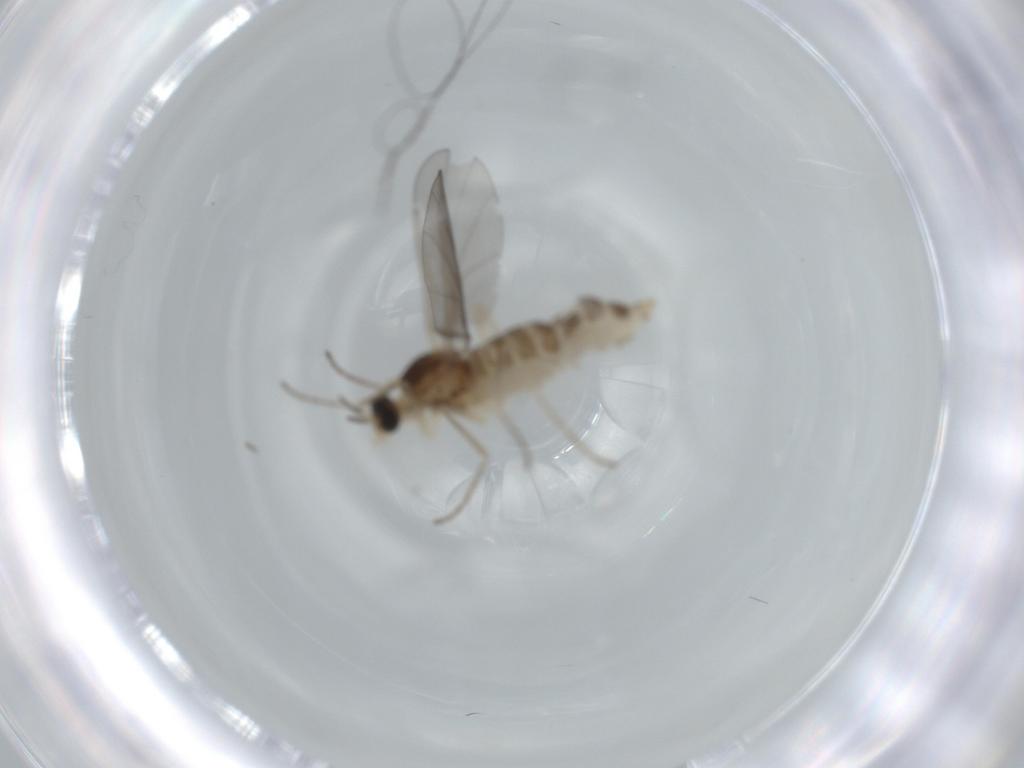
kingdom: Animalia
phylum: Arthropoda
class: Insecta
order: Diptera
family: Cecidomyiidae
